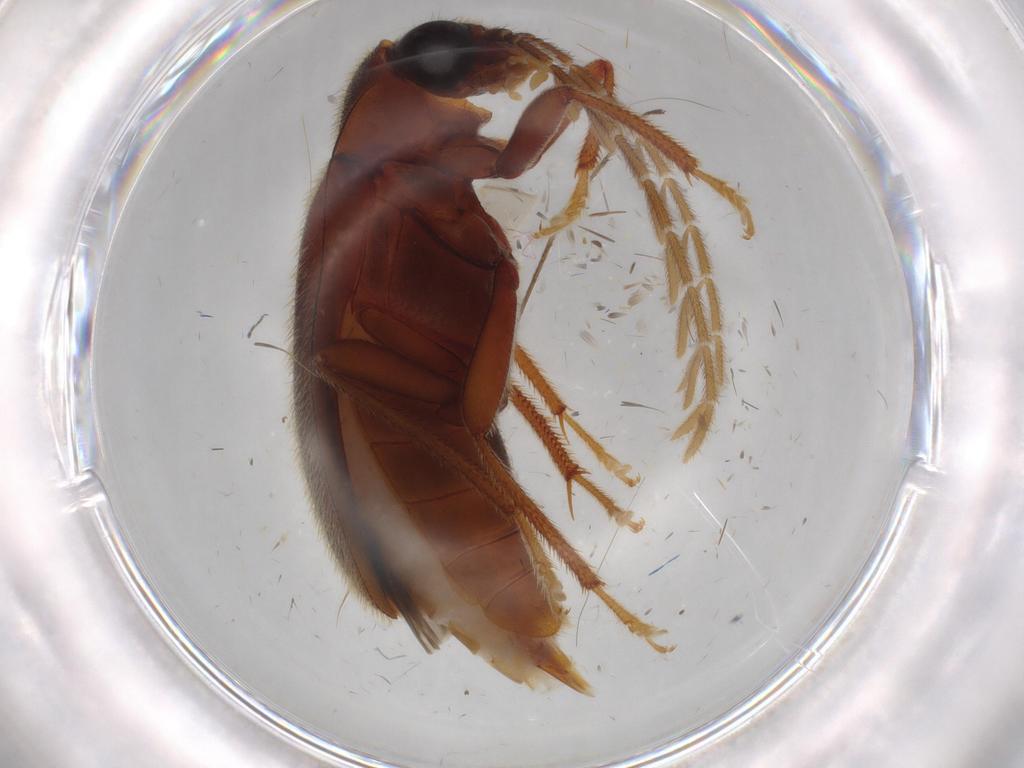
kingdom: Animalia
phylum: Arthropoda
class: Insecta
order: Coleoptera
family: Ptilodactylidae
